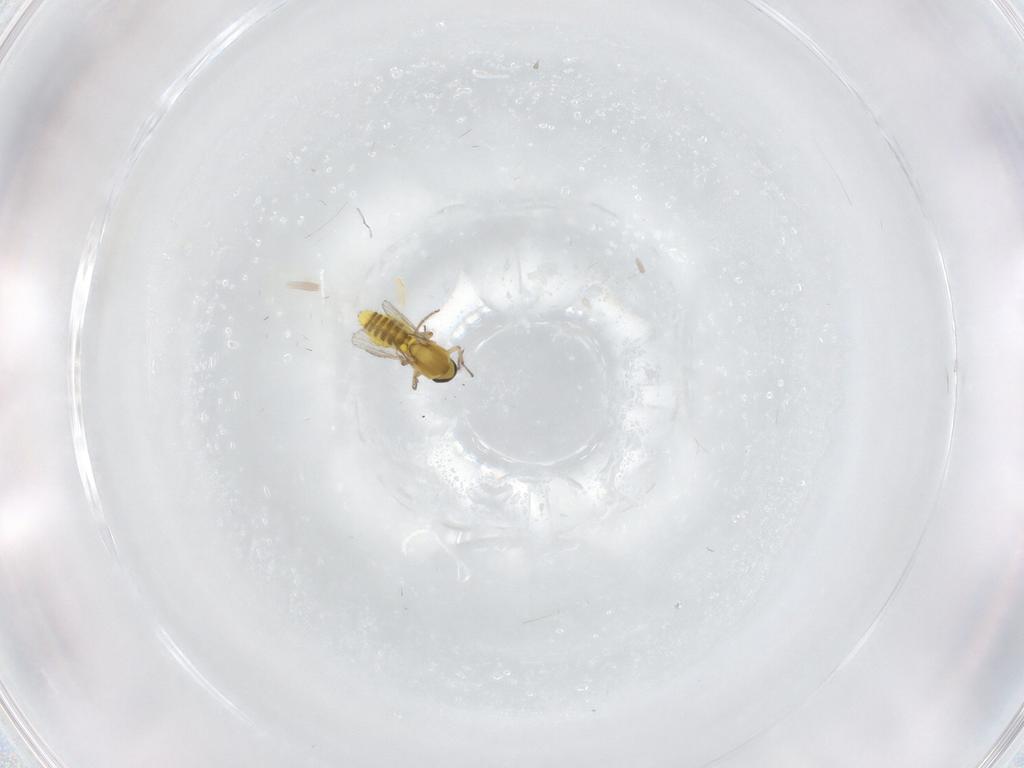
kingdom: Animalia
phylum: Arthropoda
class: Insecta
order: Diptera
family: Ceratopogonidae
